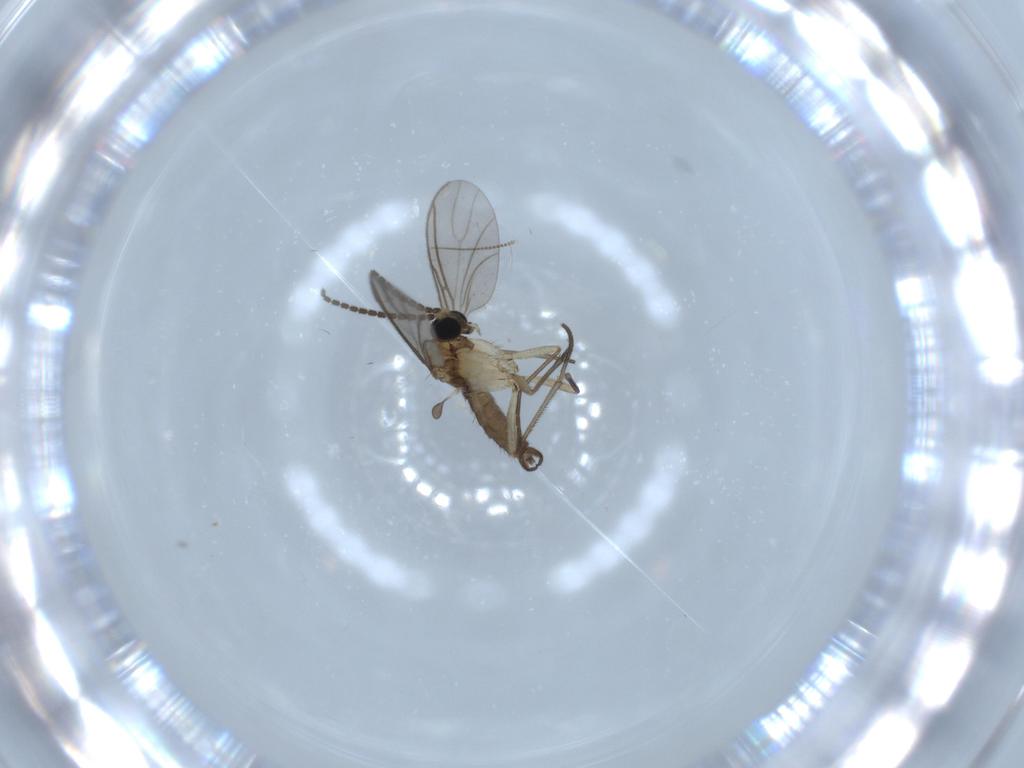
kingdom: Animalia
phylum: Arthropoda
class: Insecta
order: Diptera
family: Sciaridae
